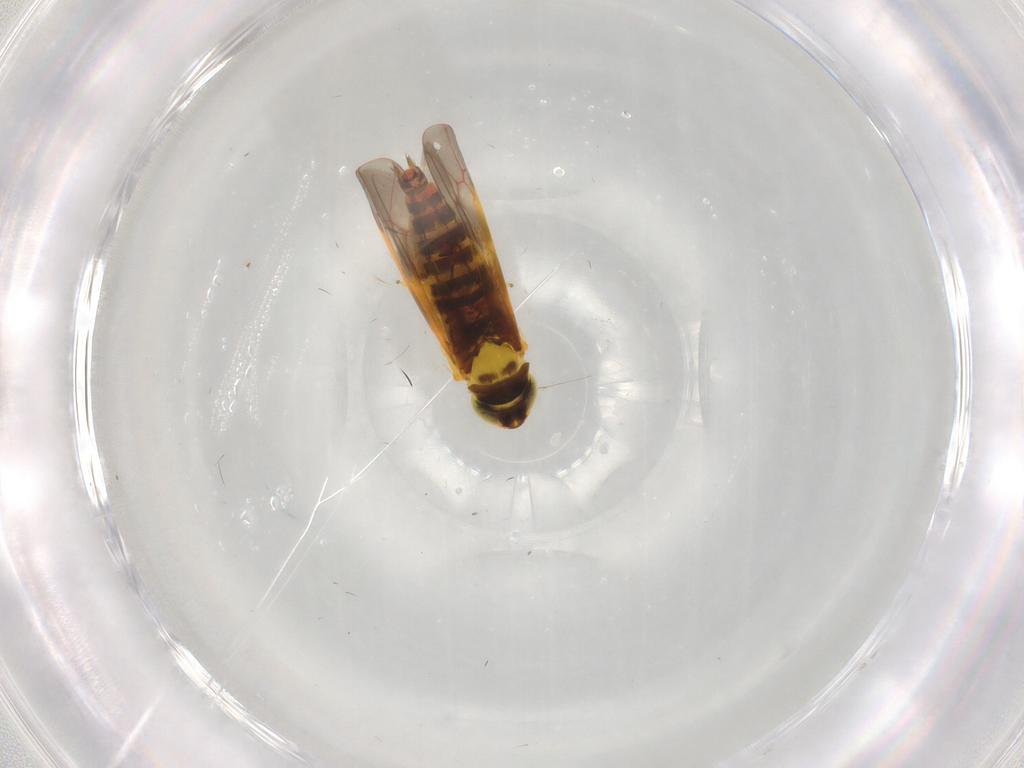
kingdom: Animalia
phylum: Arthropoda
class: Insecta
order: Hemiptera
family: Cicadellidae
